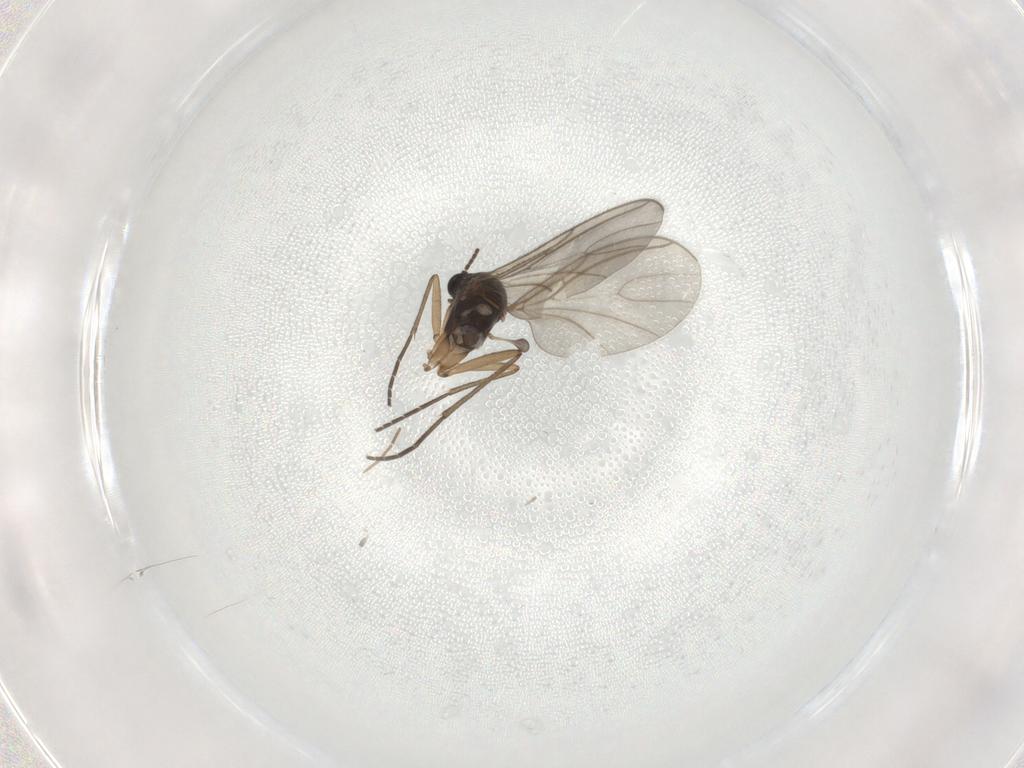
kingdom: Animalia
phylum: Arthropoda
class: Insecta
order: Diptera
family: Sciaridae
